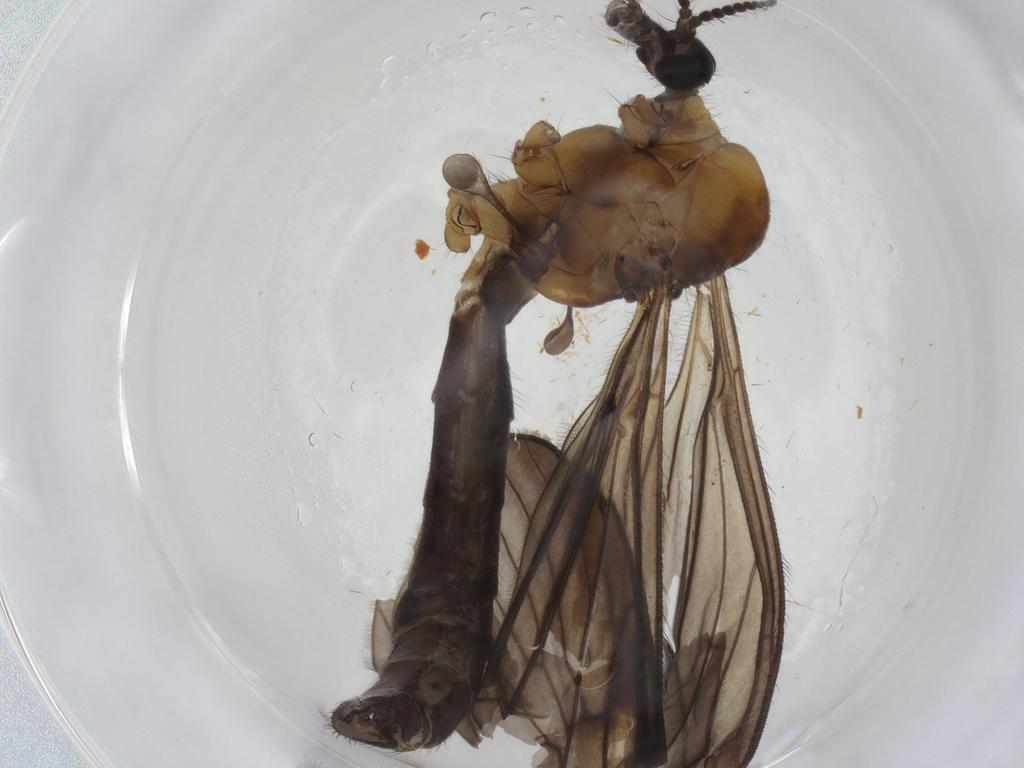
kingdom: Animalia
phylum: Arthropoda
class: Insecta
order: Diptera
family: Limoniidae
